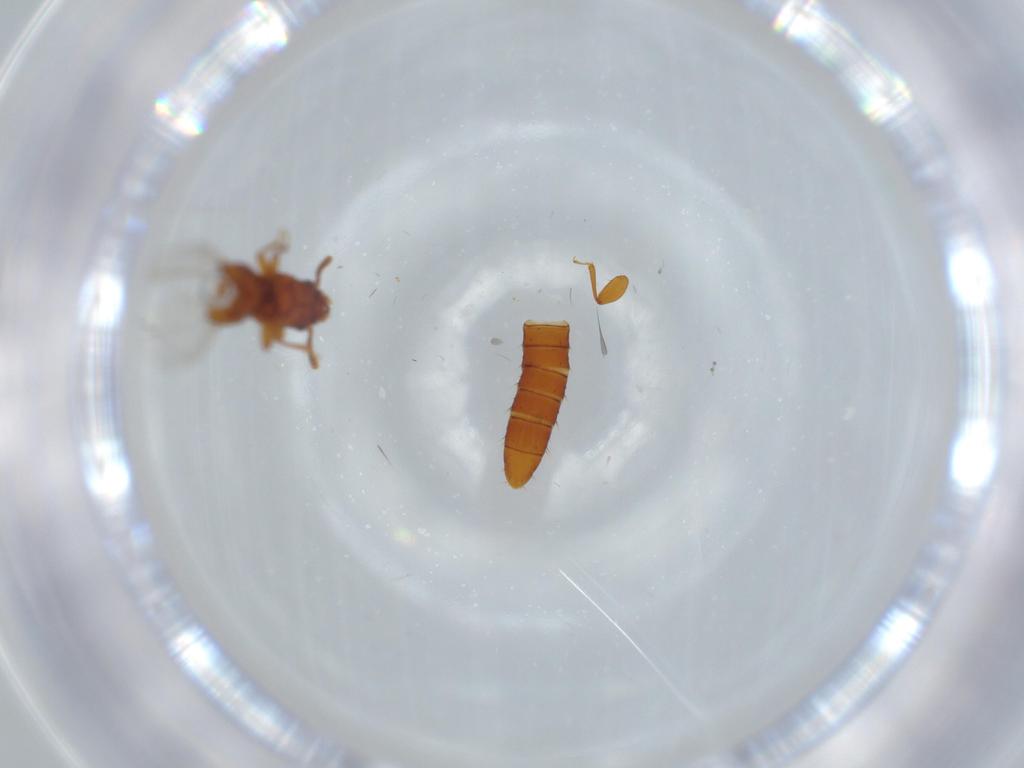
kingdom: Animalia
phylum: Arthropoda
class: Insecta
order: Coleoptera
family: Staphylinidae
